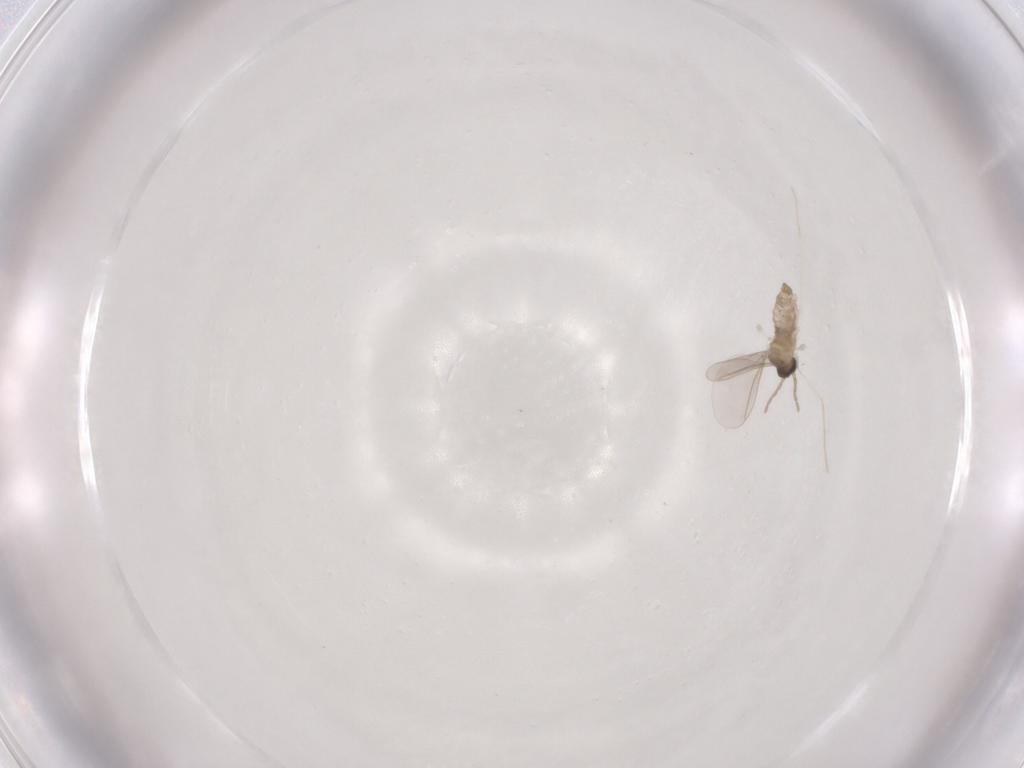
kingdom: Animalia
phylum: Arthropoda
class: Insecta
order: Diptera
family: Cecidomyiidae
